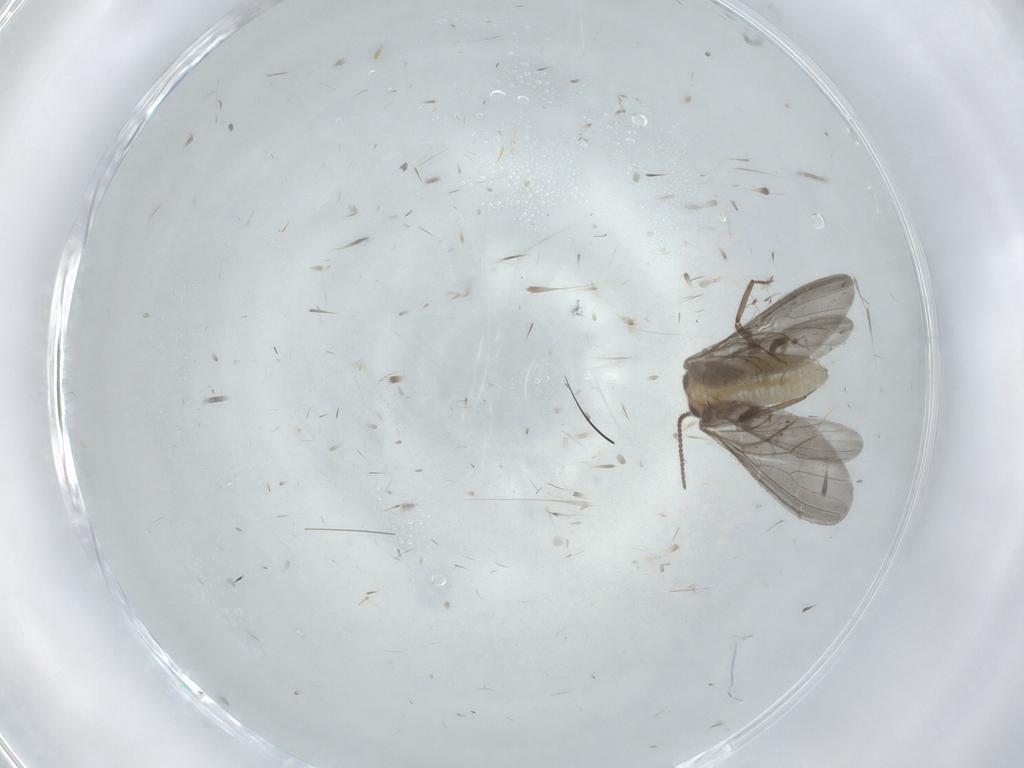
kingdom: Animalia
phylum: Arthropoda
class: Insecta
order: Neuroptera
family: Coniopterygidae
